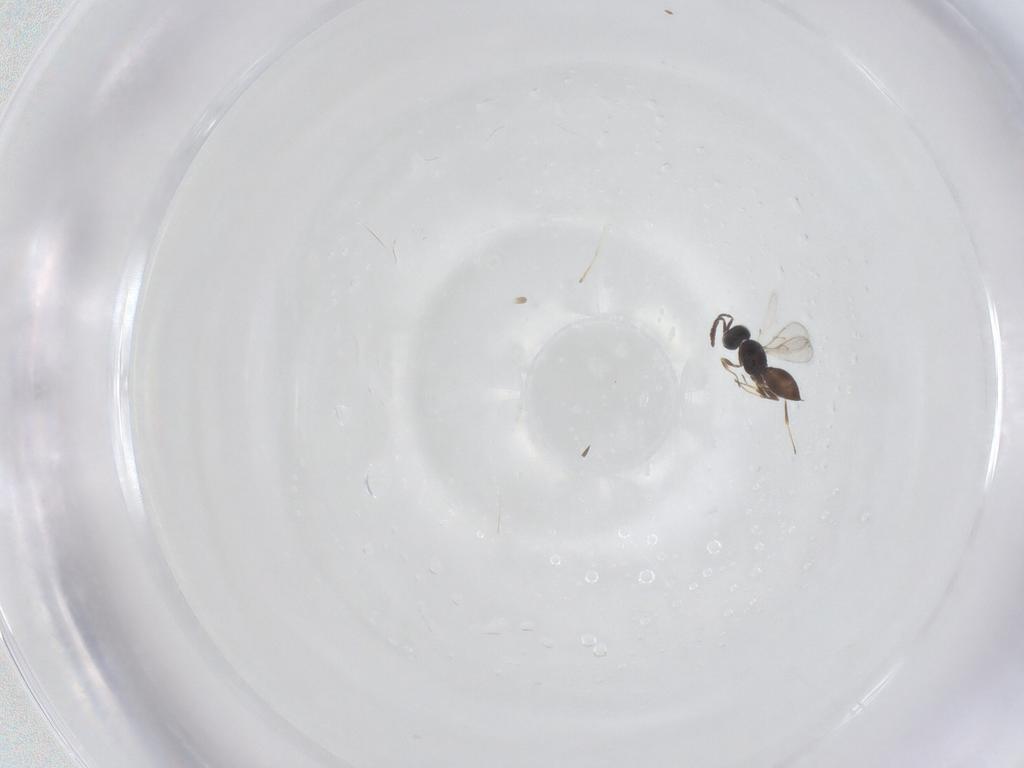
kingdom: Animalia
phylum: Arthropoda
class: Insecta
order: Hymenoptera
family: Scelionidae
